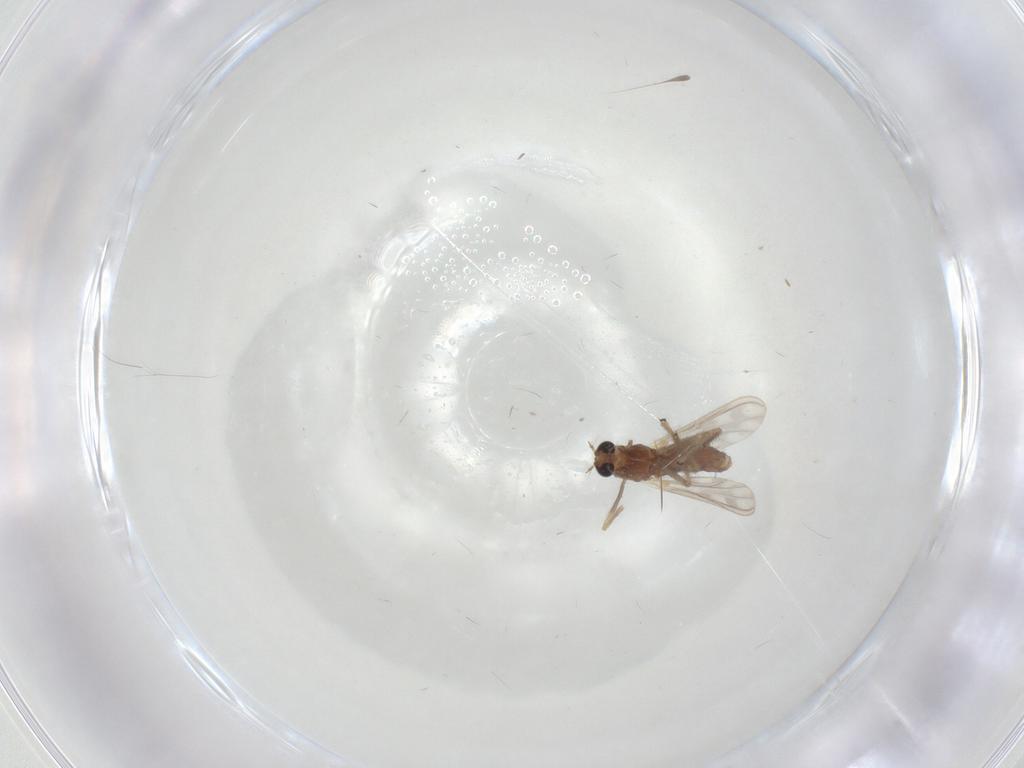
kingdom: Animalia
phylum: Arthropoda
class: Insecta
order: Diptera
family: Chironomidae
